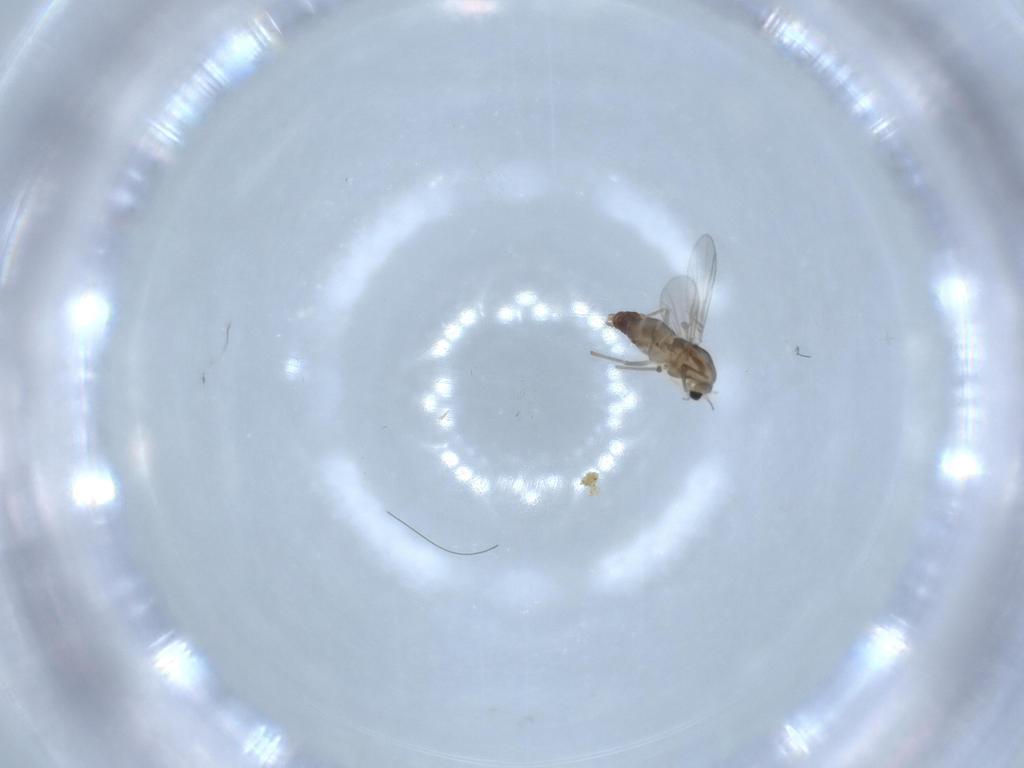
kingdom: Animalia
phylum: Arthropoda
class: Insecta
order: Diptera
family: Chironomidae
